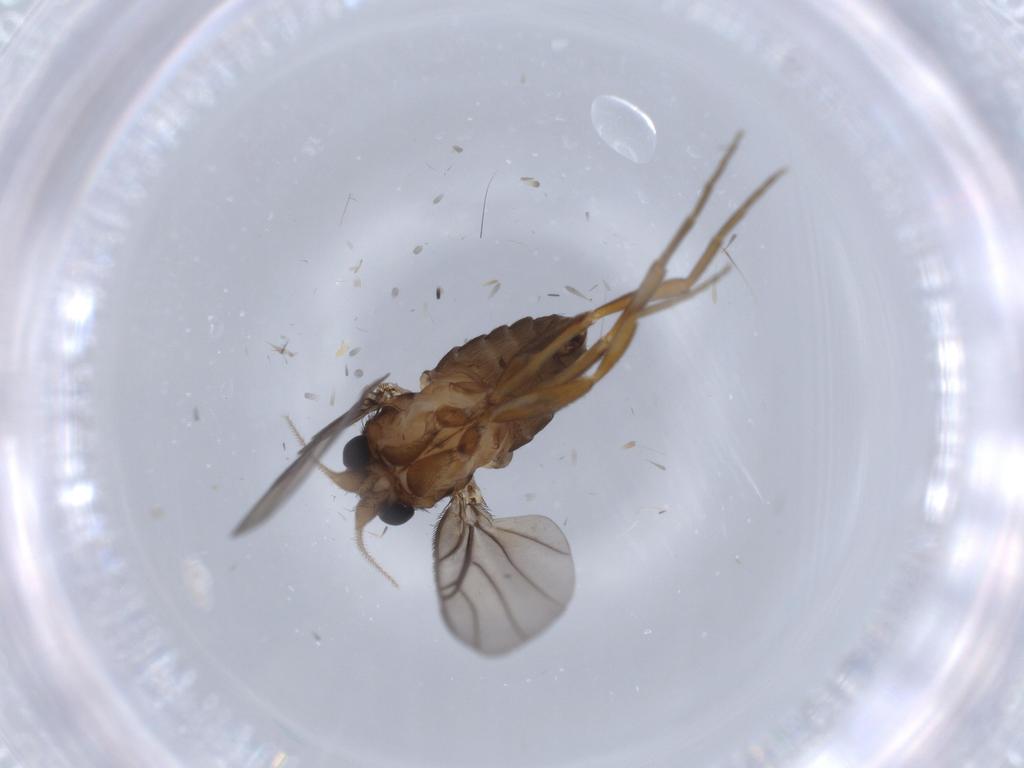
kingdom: Animalia
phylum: Arthropoda
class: Insecta
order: Diptera
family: Phoridae
